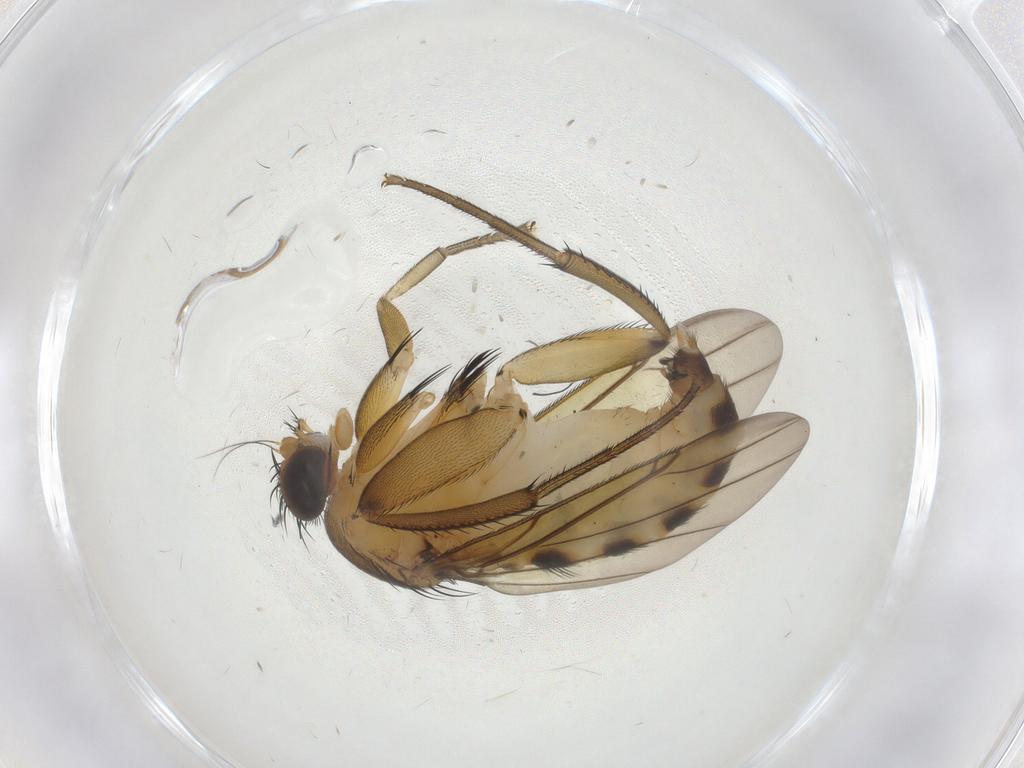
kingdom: Animalia
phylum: Arthropoda
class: Insecta
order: Diptera
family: Phoridae
